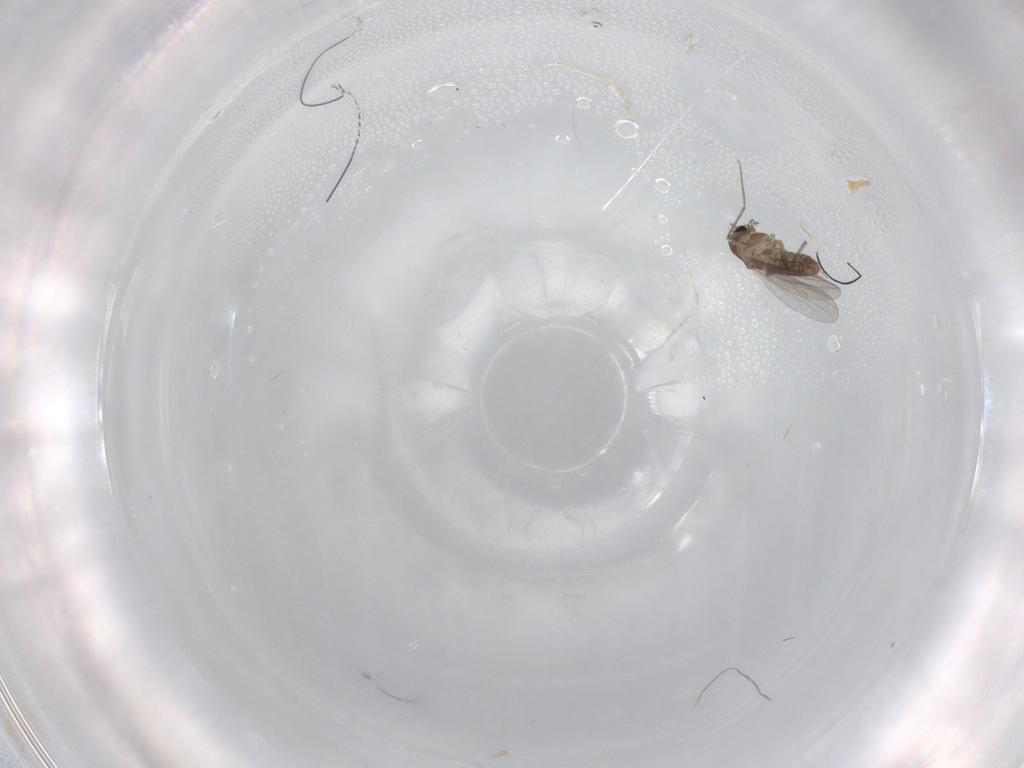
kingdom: Animalia
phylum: Arthropoda
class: Insecta
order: Diptera
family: Chironomidae
